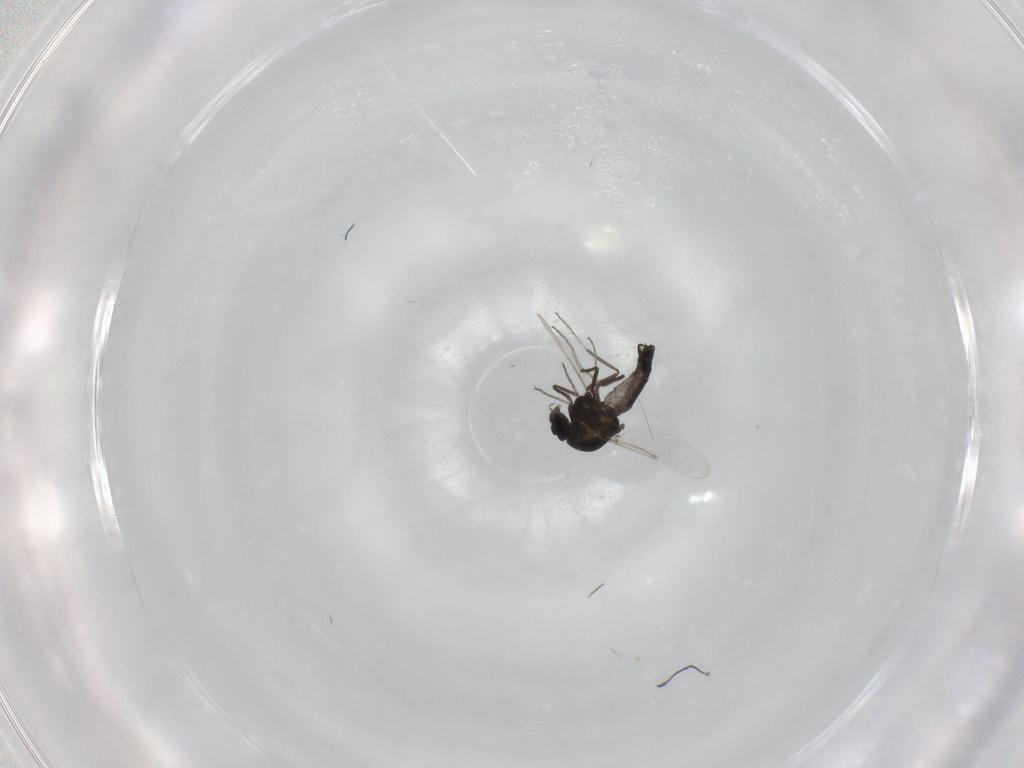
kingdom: Animalia
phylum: Arthropoda
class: Insecta
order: Diptera
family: Ceratopogonidae
